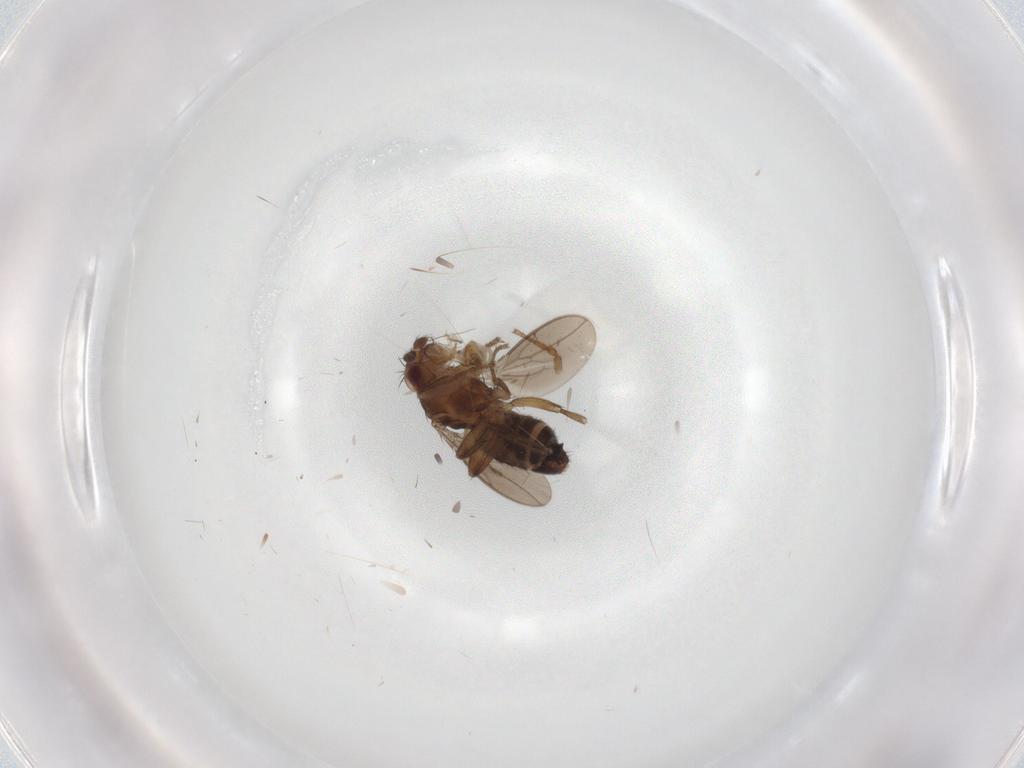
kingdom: Animalia
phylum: Arthropoda
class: Insecta
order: Diptera
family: Sphaeroceridae
